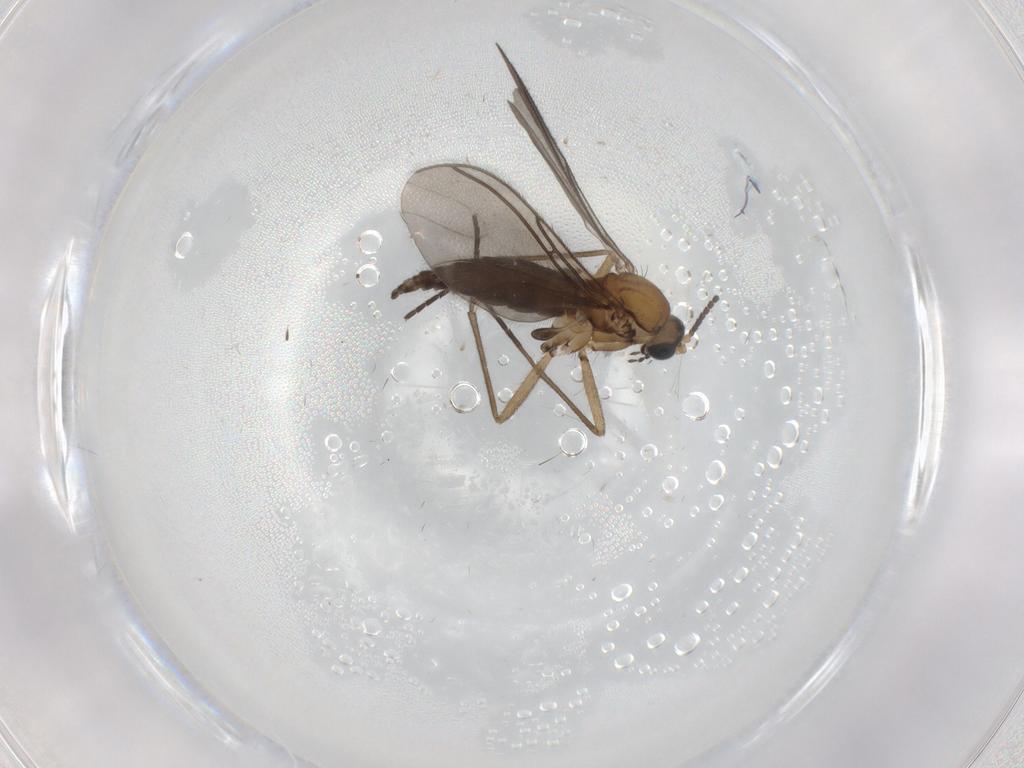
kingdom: Animalia
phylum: Arthropoda
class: Insecta
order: Diptera
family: Sciaridae
